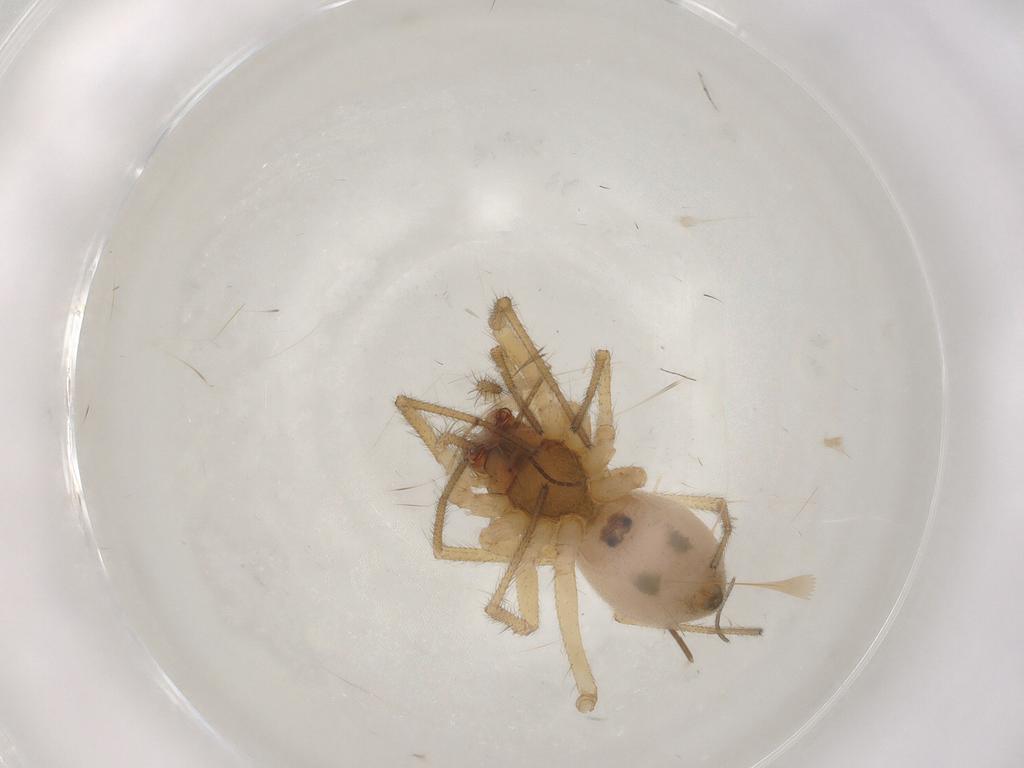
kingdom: Animalia
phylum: Arthropoda
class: Arachnida
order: Araneae
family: Linyphiidae
